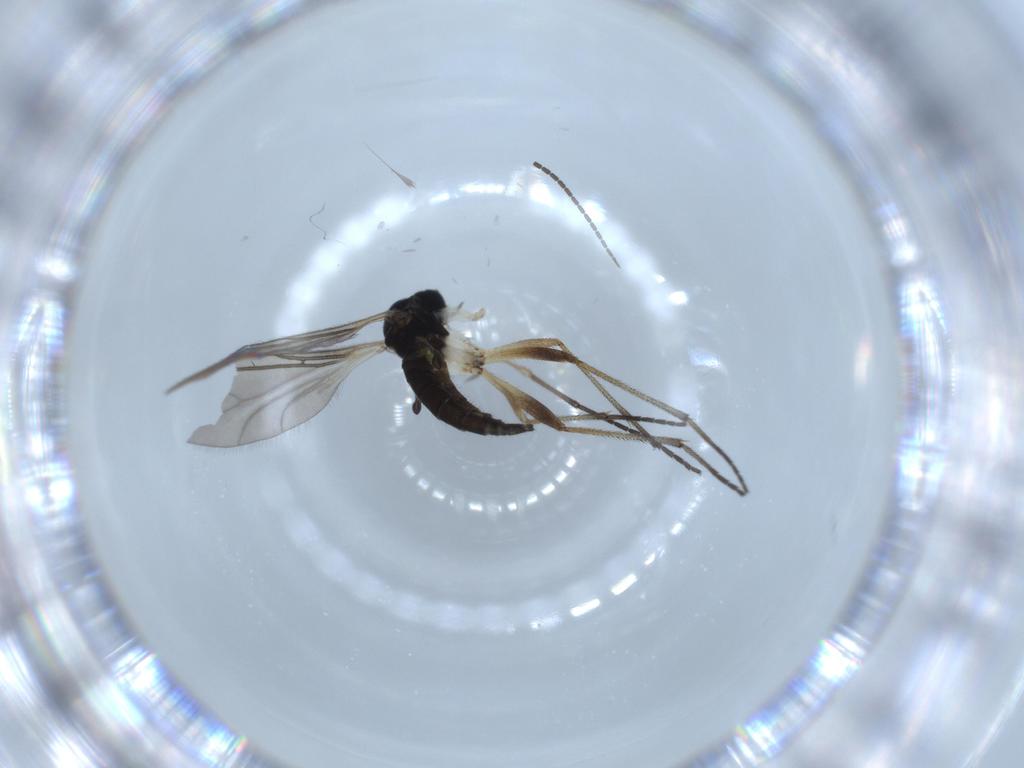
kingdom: Animalia
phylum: Arthropoda
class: Insecta
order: Diptera
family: Sciaridae
